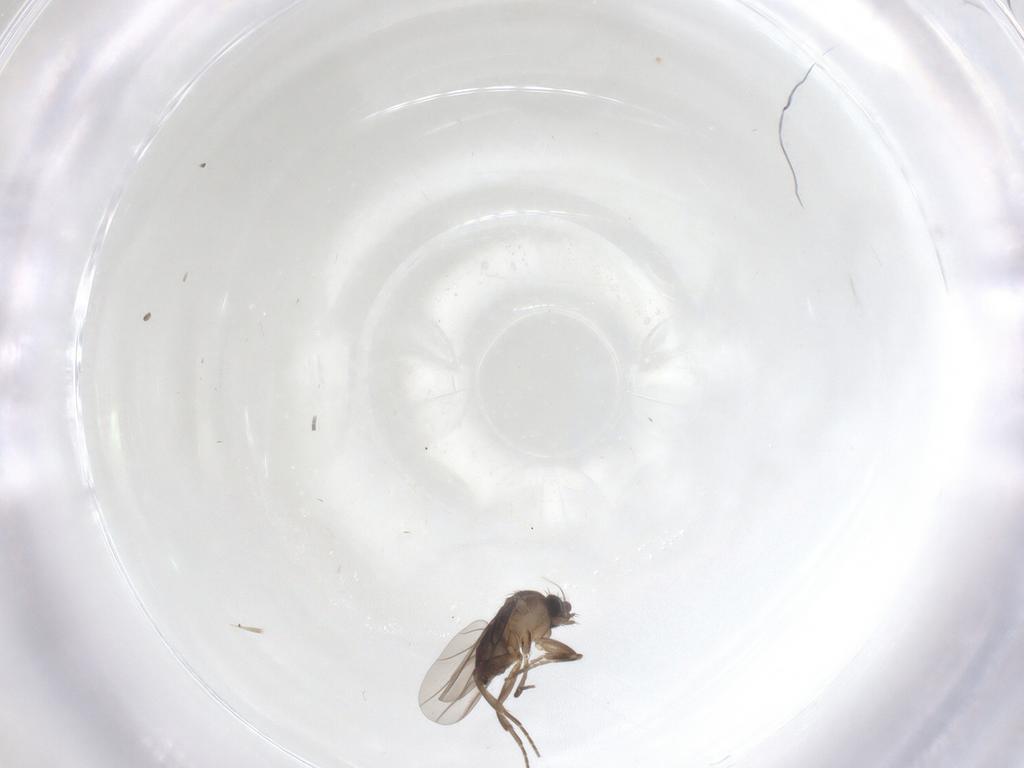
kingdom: Animalia
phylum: Arthropoda
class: Insecta
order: Diptera
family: Phoridae
